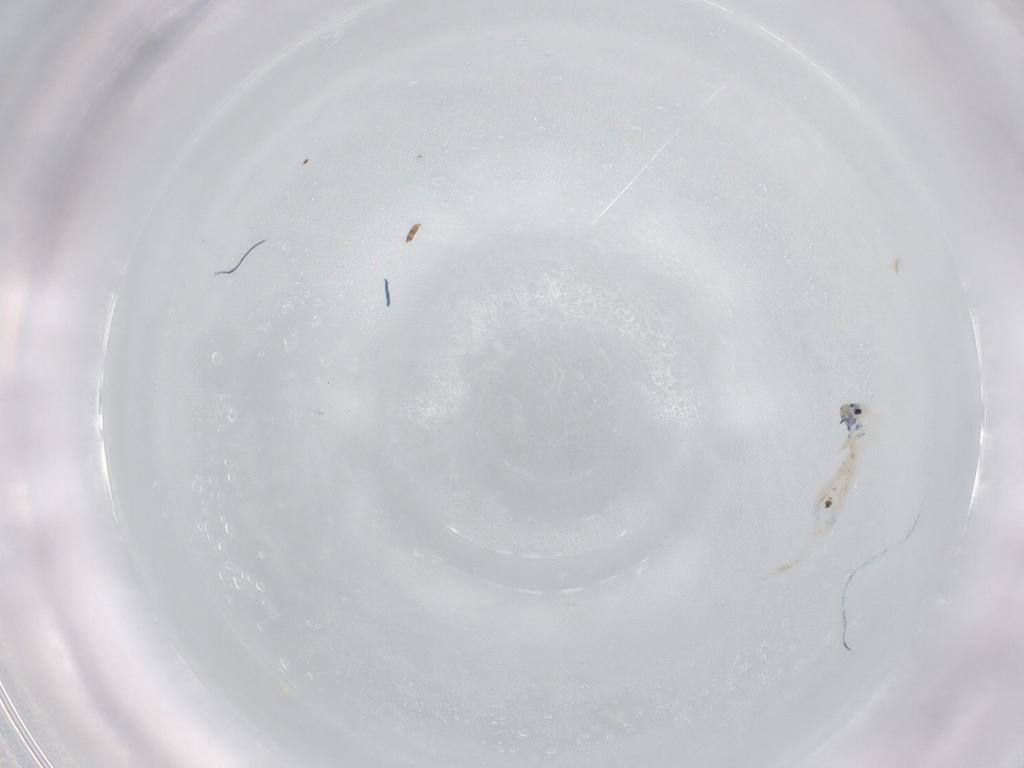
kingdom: Animalia
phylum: Arthropoda
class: Collembola
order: Entomobryomorpha
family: Entomobryidae
